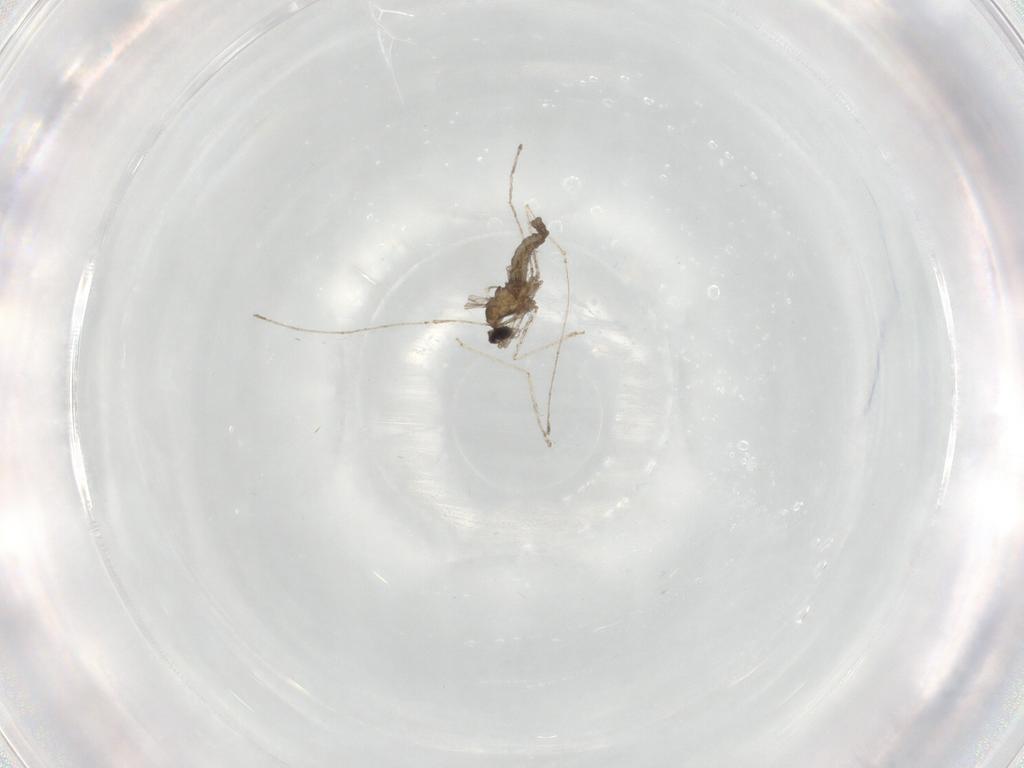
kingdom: Animalia
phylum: Arthropoda
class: Insecta
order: Diptera
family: Cecidomyiidae
